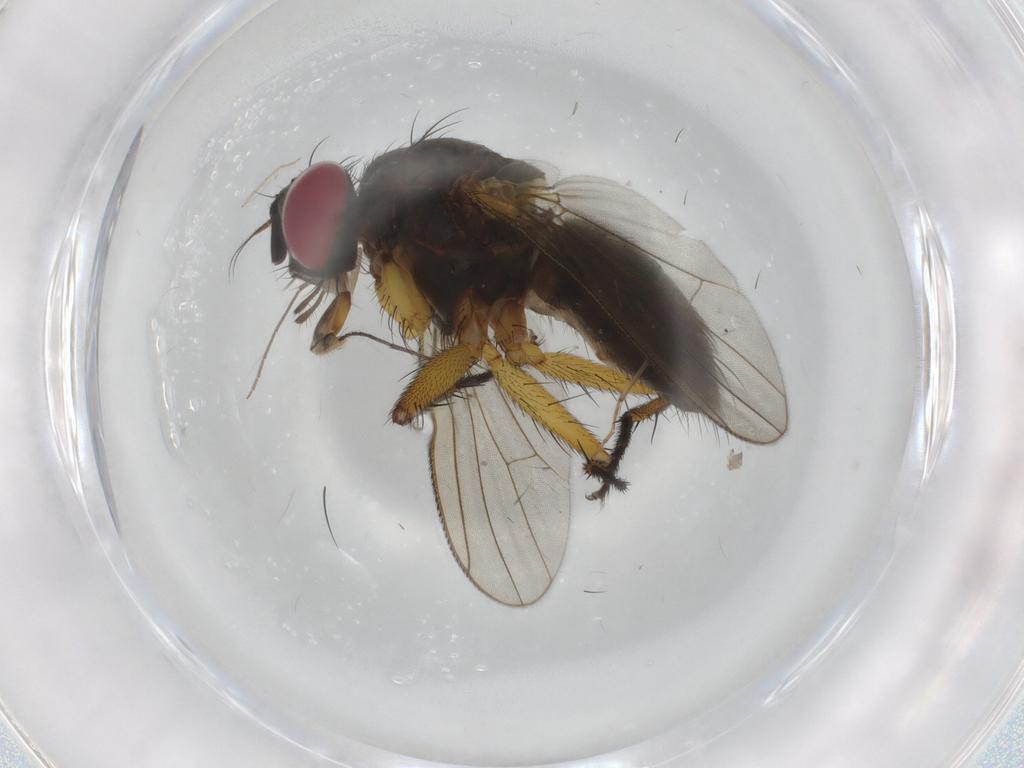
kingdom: Animalia
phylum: Arthropoda
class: Insecta
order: Diptera
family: Muscidae
